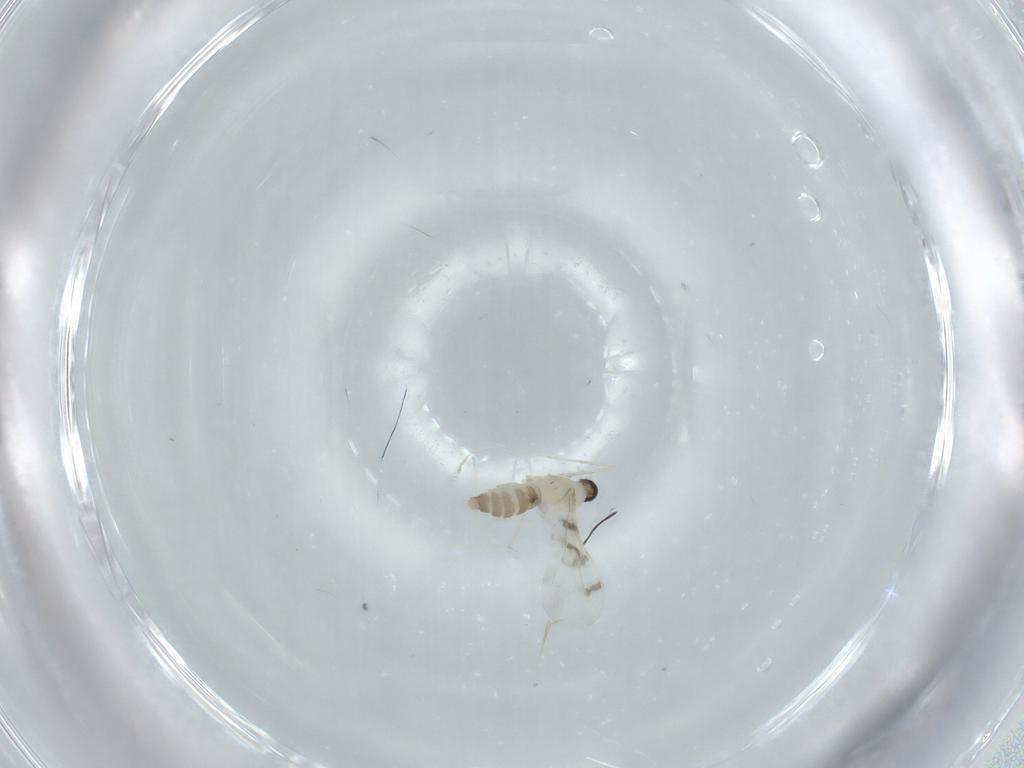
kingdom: Animalia
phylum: Arthropoda
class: Insecta
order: Diptera
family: Cecidomyiidae
